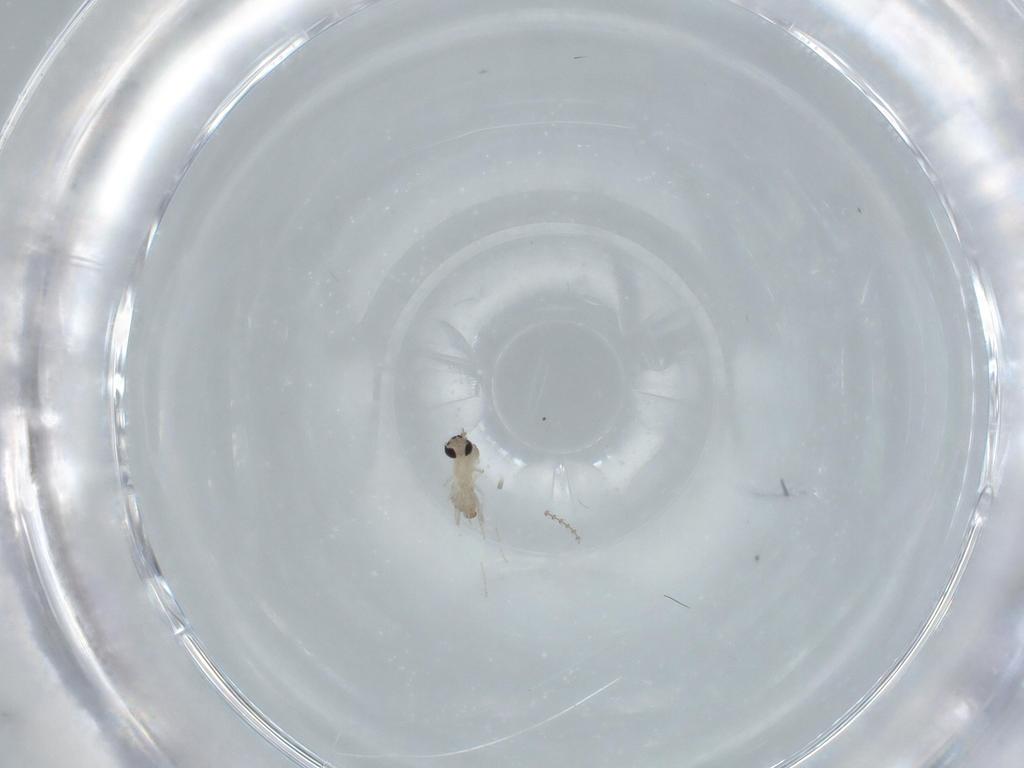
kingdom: Animalia
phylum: Arthropoda
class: Insecta
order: Diptera
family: Cecidomyiidae
